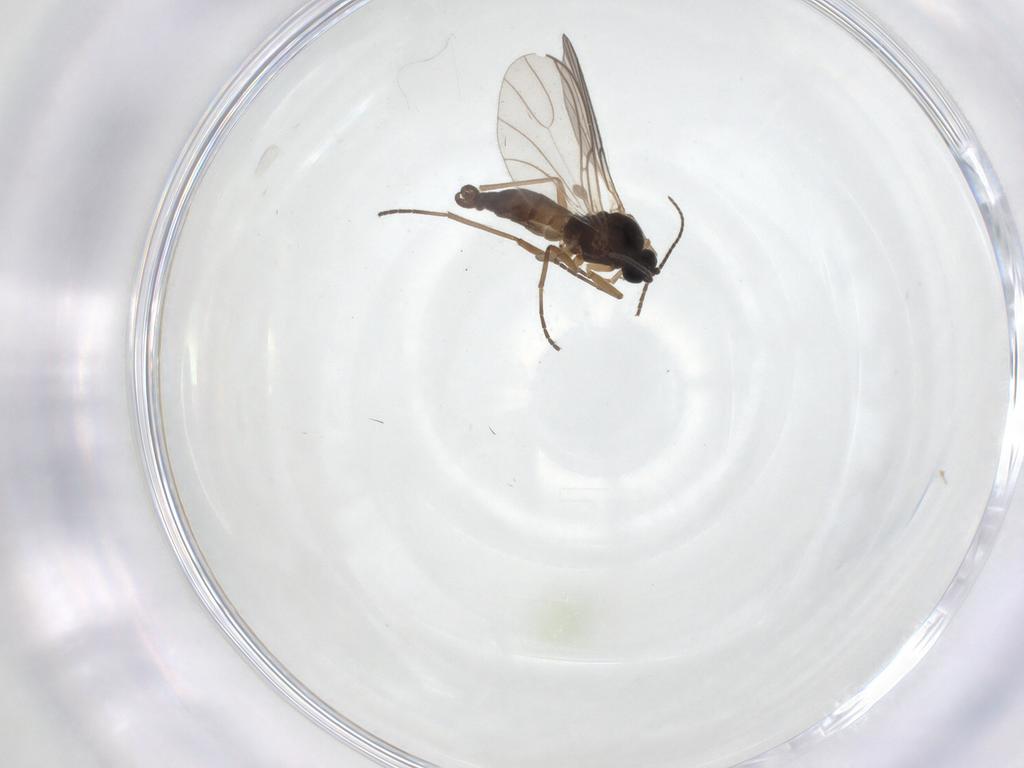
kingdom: Animalia
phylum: Arthropoda
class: Insecta
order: Diptera
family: Sciaridae
